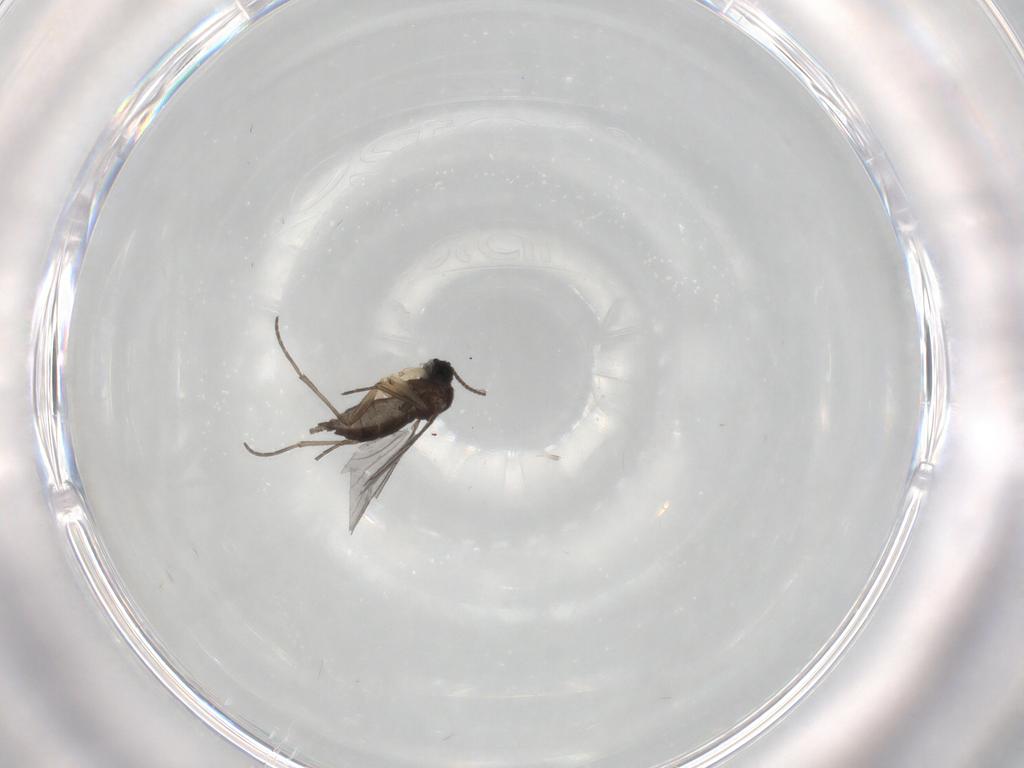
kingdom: Animalia
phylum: Arthropoda
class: Insecta
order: Diptera
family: Sciaridae
